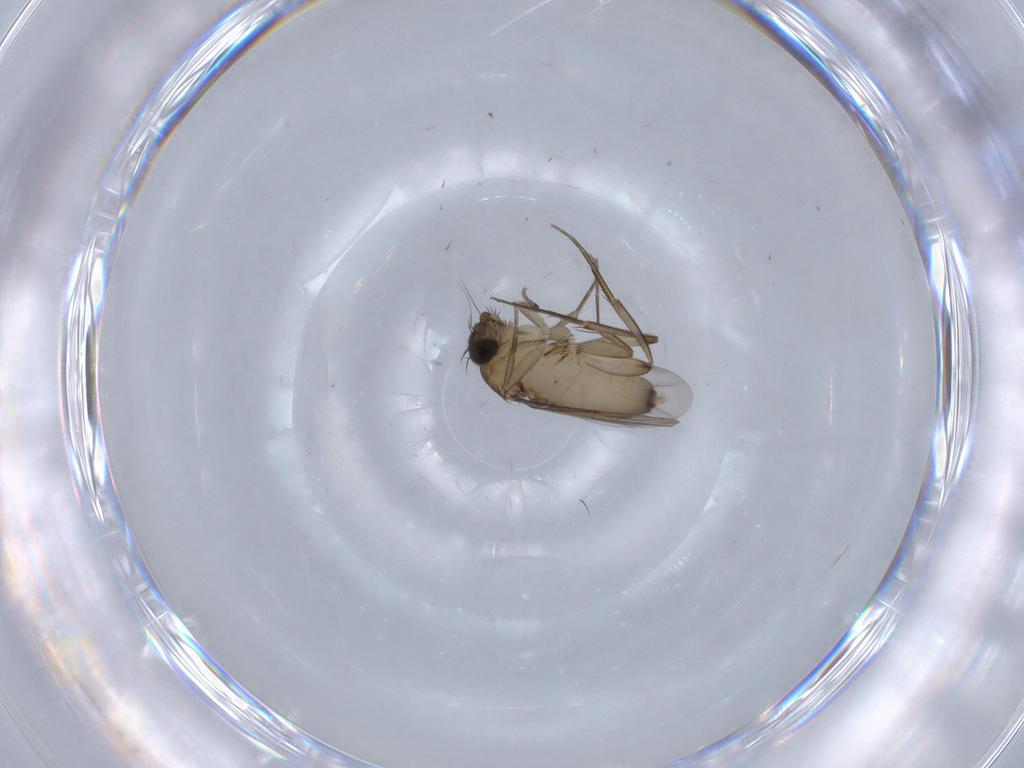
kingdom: Animalia
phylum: Arthropoda
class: Insecta
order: Diptera
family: Phoridae
